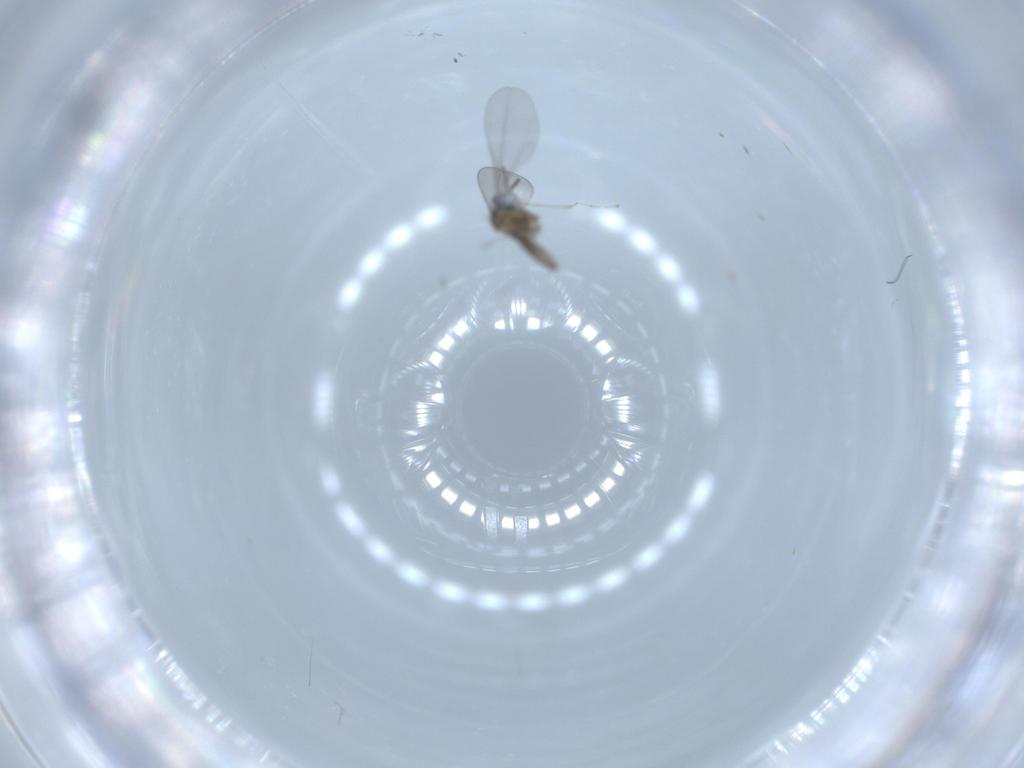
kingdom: Animalia
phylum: Arthropoda
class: Insecta
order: Diptera
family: Cecidomyiidae
